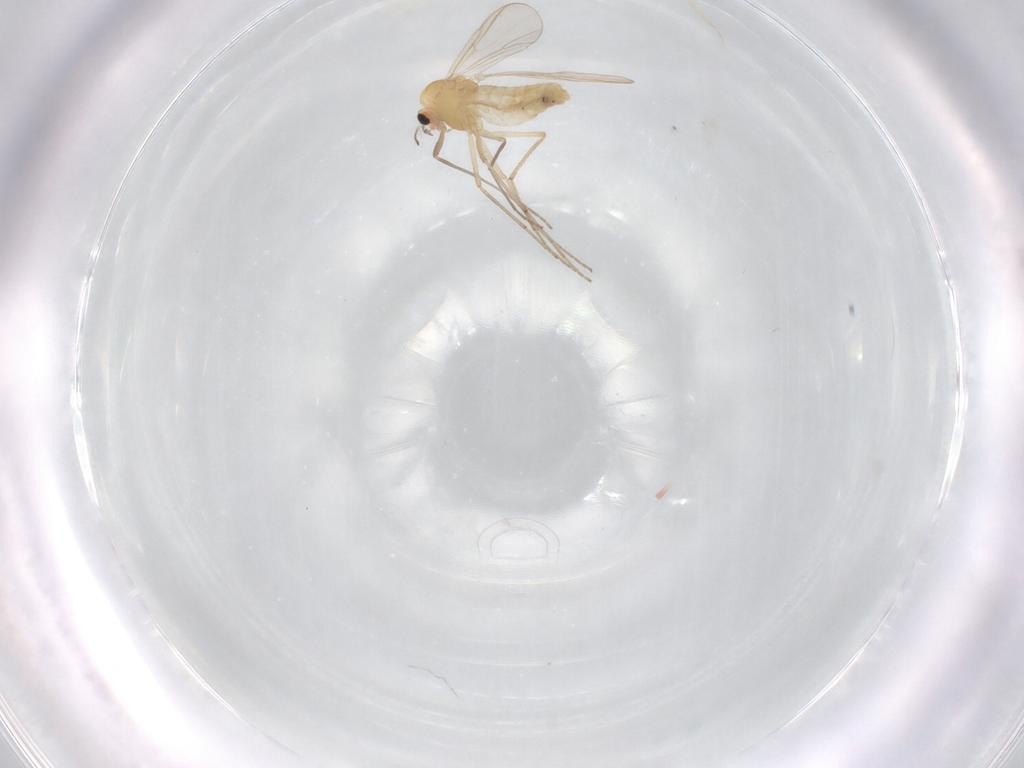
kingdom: Animalia
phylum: Arthropoda
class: Insecta
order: Diptera
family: Chironomidae
